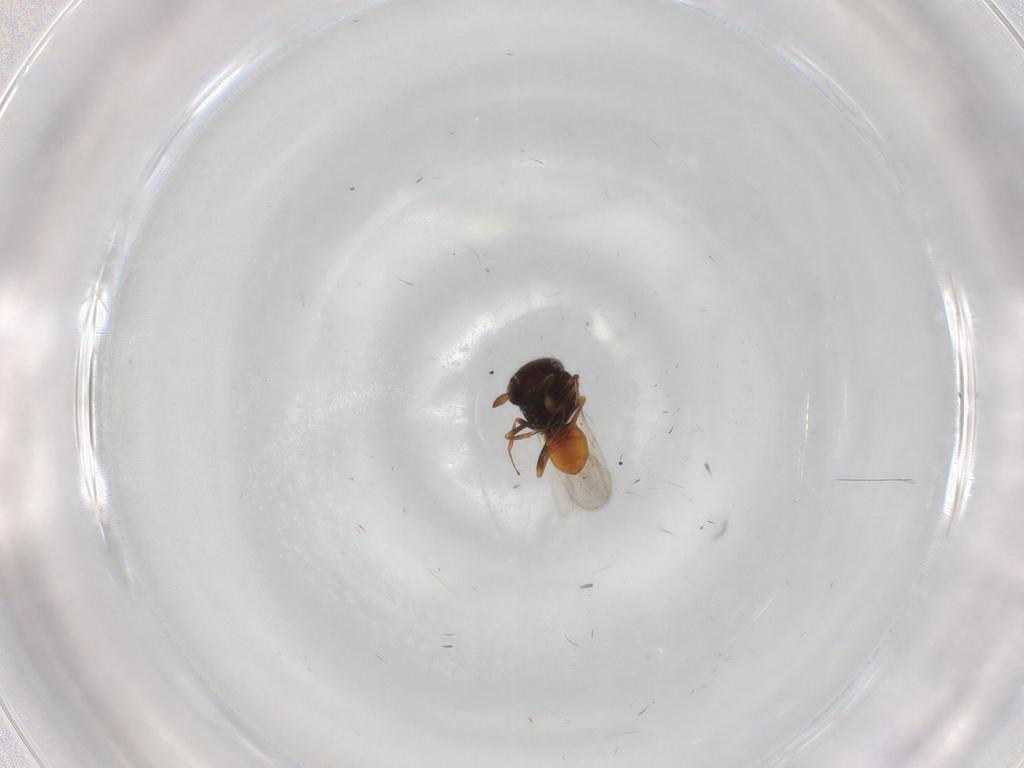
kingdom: Animalia
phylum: Arthropoda
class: Insecta
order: Hymenoptera
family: Scelionidae
